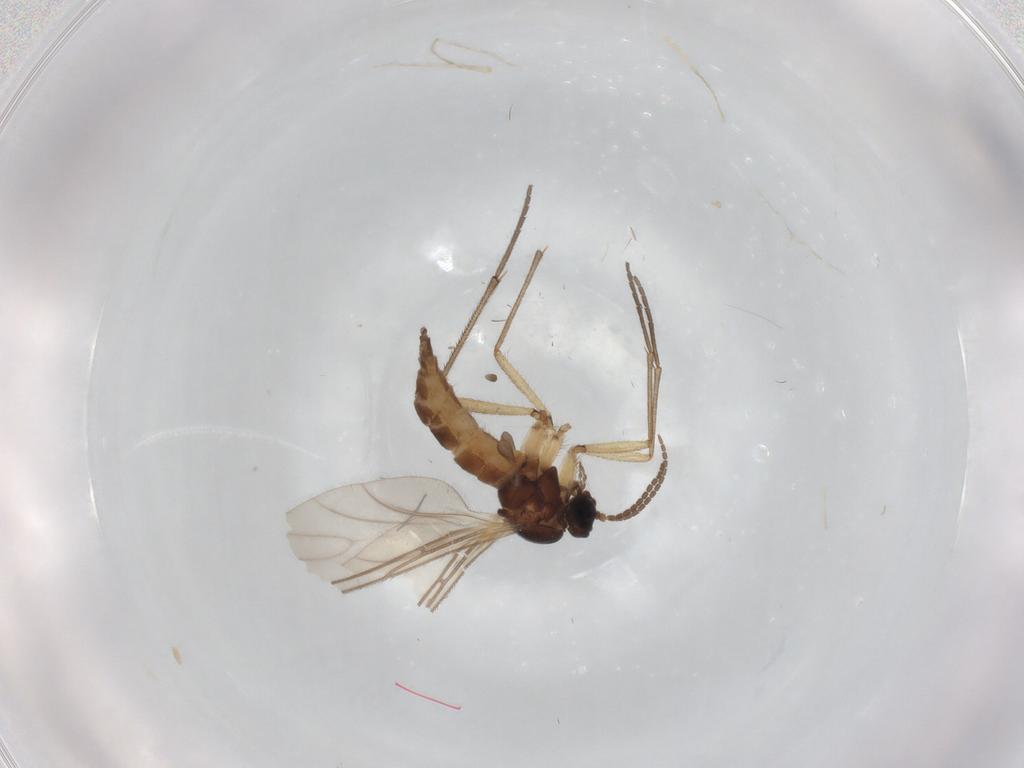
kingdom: Animalia
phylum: Arthropoda
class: Insecta
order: Diptera
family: Sciaridae
